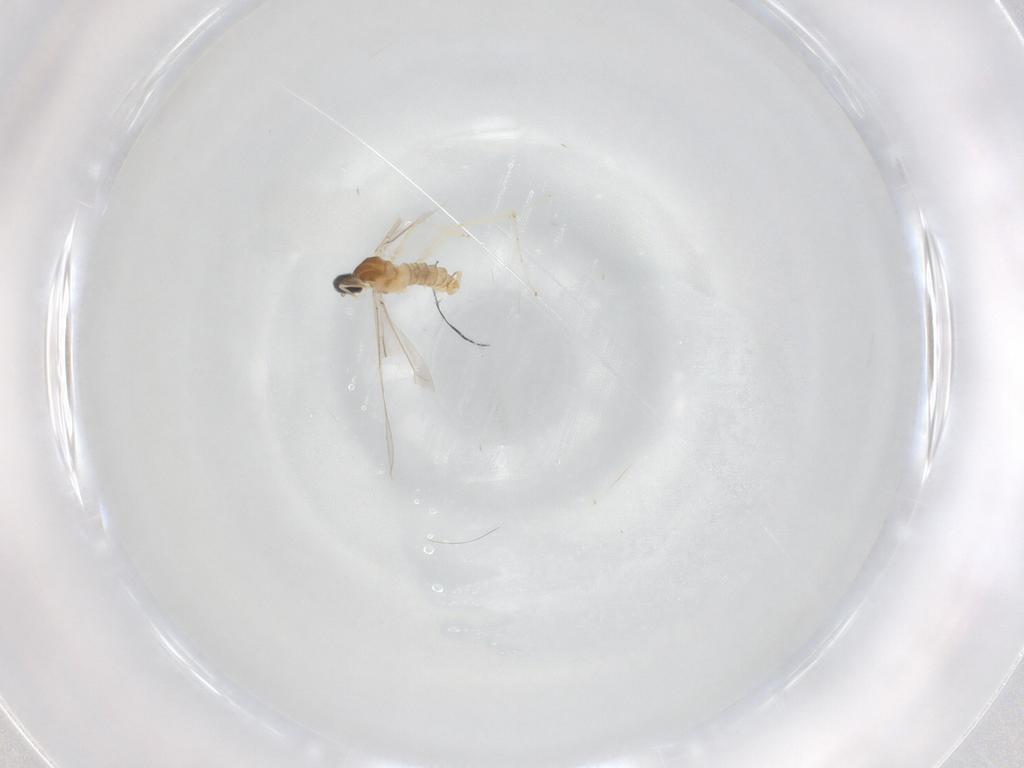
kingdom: Animalia
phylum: Arthropoda
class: Insecta
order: Diptera
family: Cecidomyiidae
